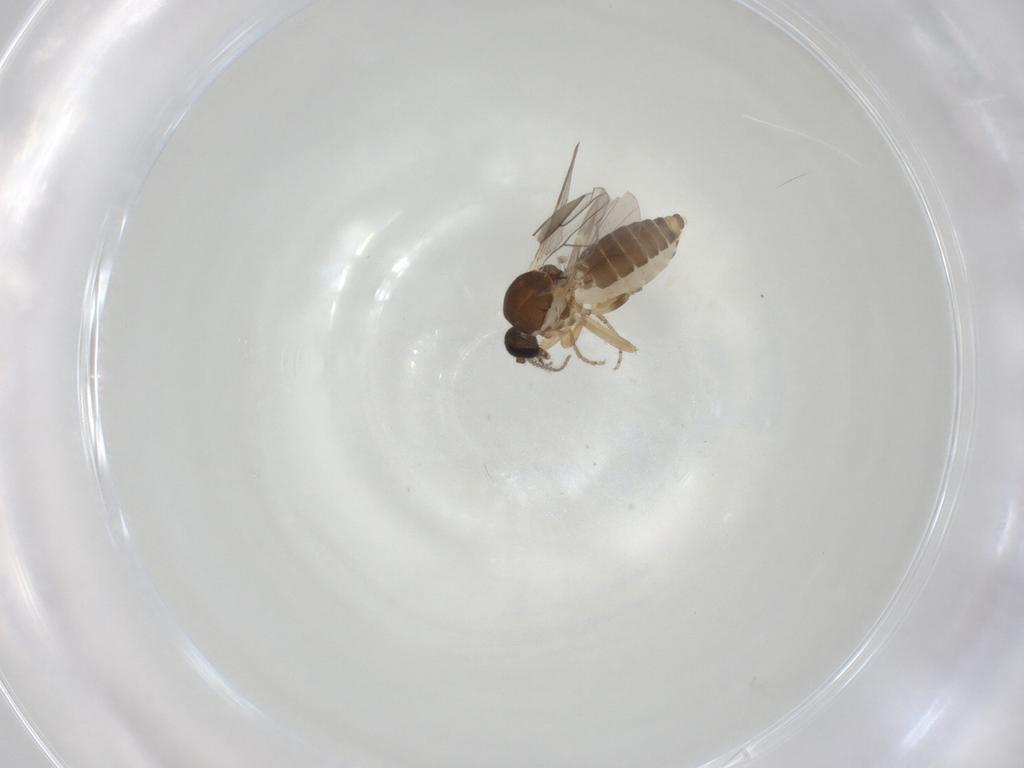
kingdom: Animalia
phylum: Arthropoda
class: Insecta
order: Diptera
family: Ceratopogonidae
